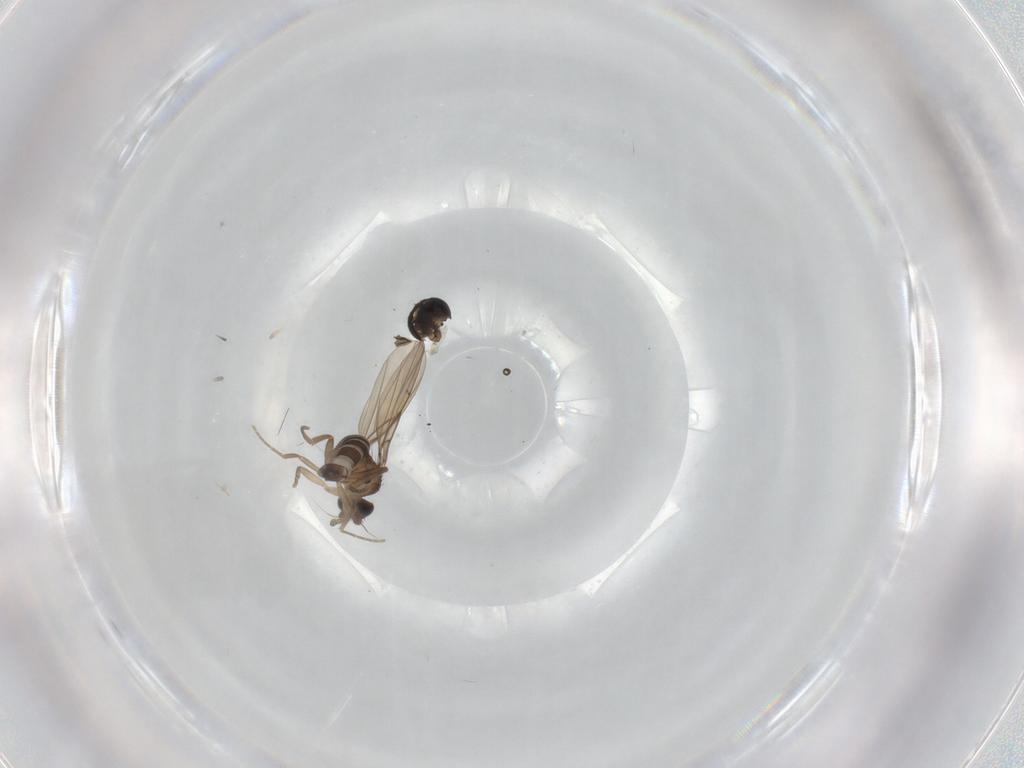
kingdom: Animalia
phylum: Arthropoda
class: Insecta
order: Diptera
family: Cecidomyiidae
